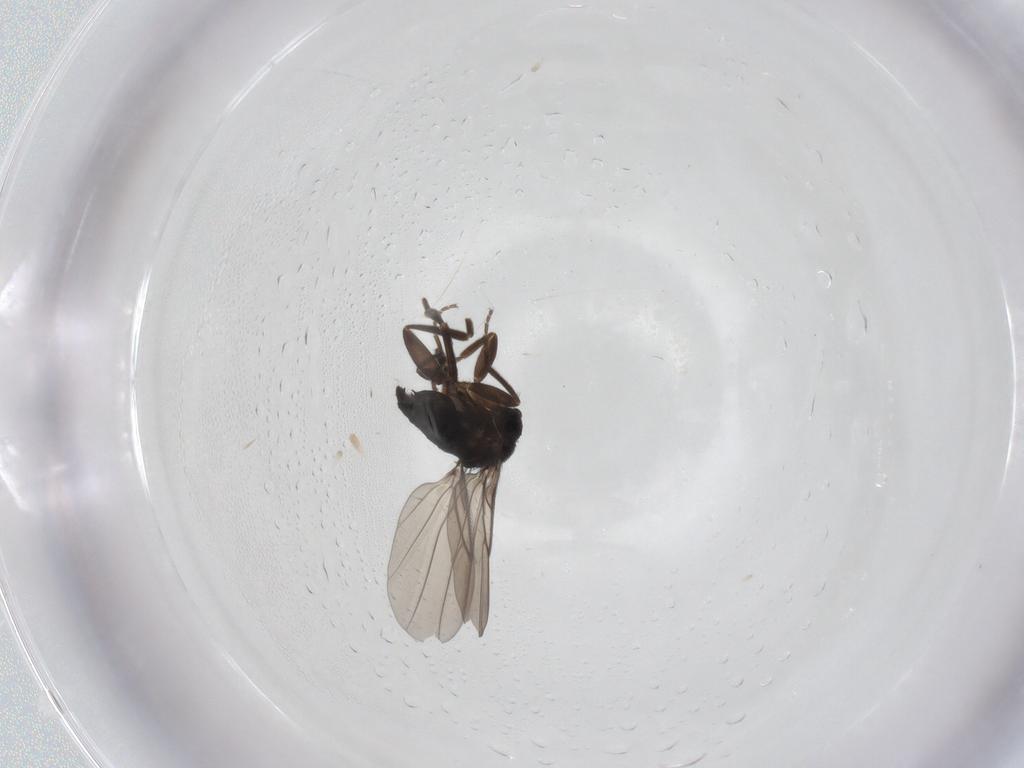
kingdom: Animalia
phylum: Arthropoda
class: Insecta
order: Diptera
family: Phoridae
